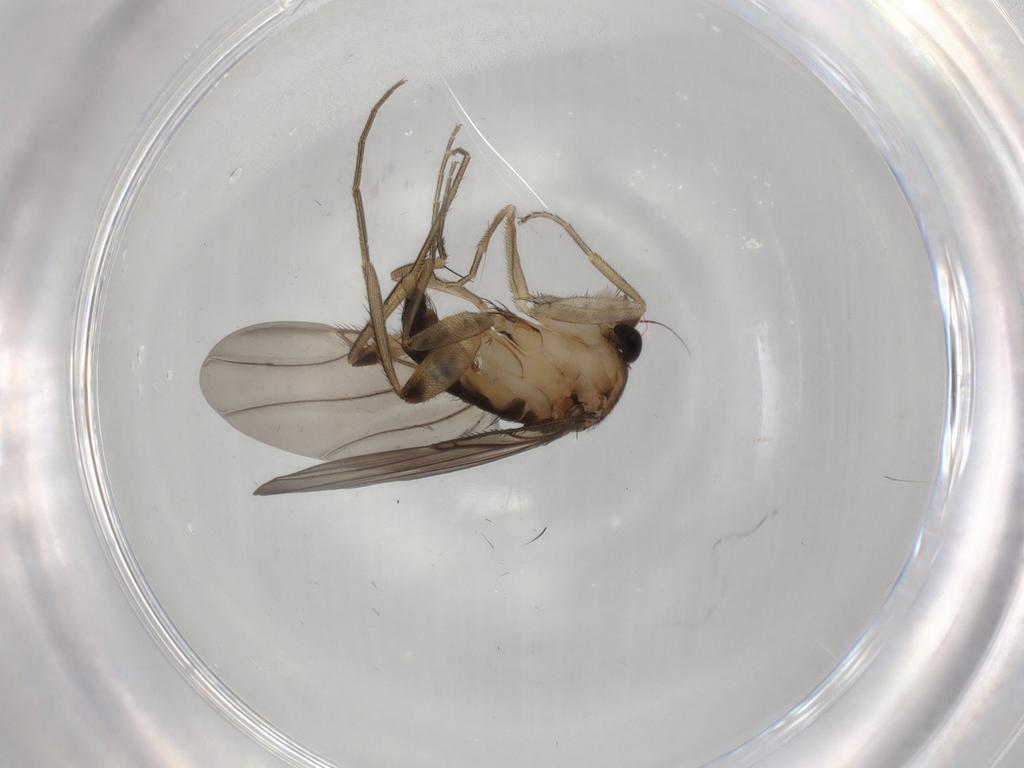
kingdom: Animalia
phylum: Arthropoda
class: Insecta
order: Diptera
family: Phoridae
